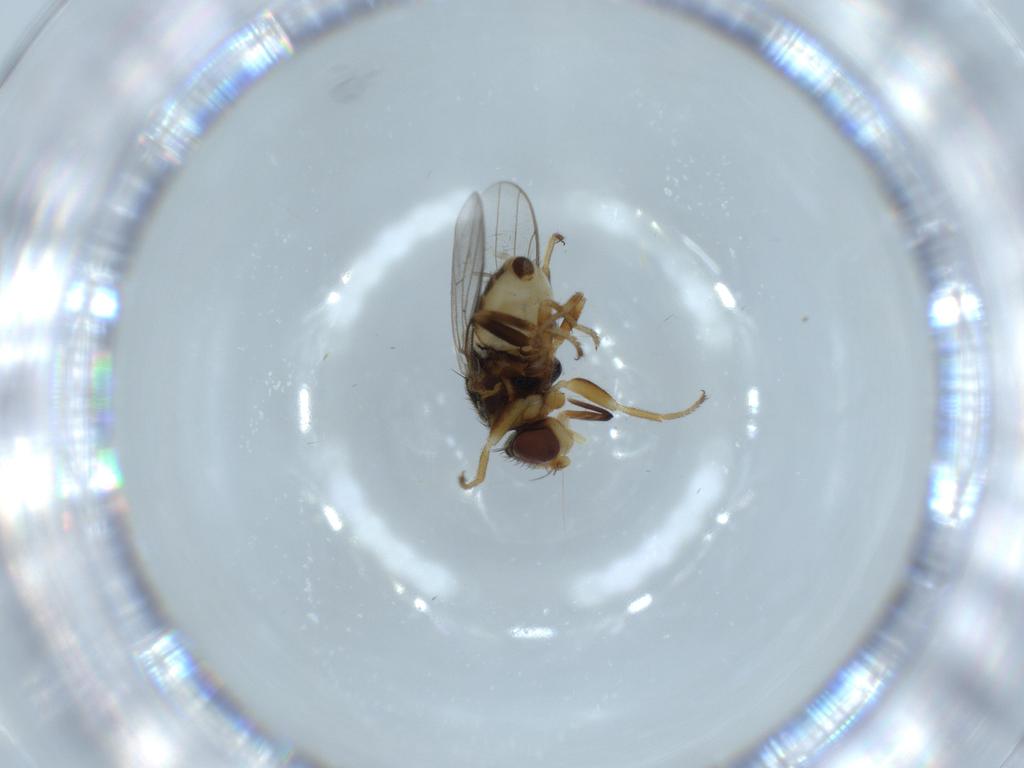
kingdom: Animalia
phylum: Arthropoda
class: Insecta
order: Diptera
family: Chloropidae
